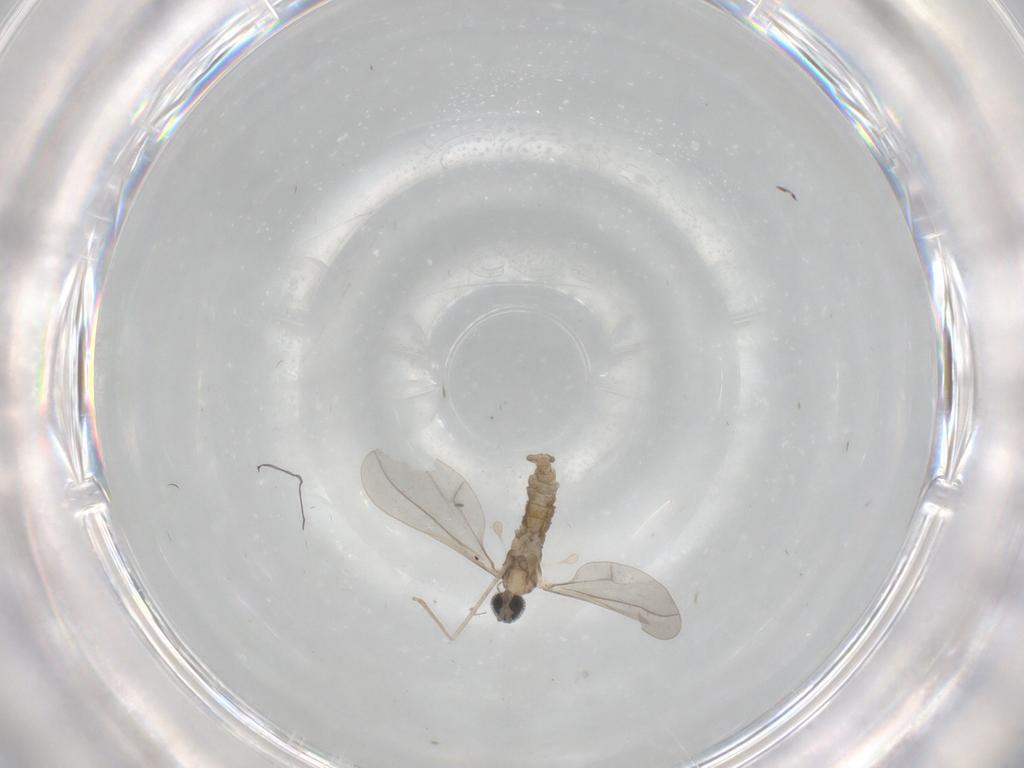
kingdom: Animalia
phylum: Arthropoda
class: Insecta
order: Diptera
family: Cecidomyiidae
